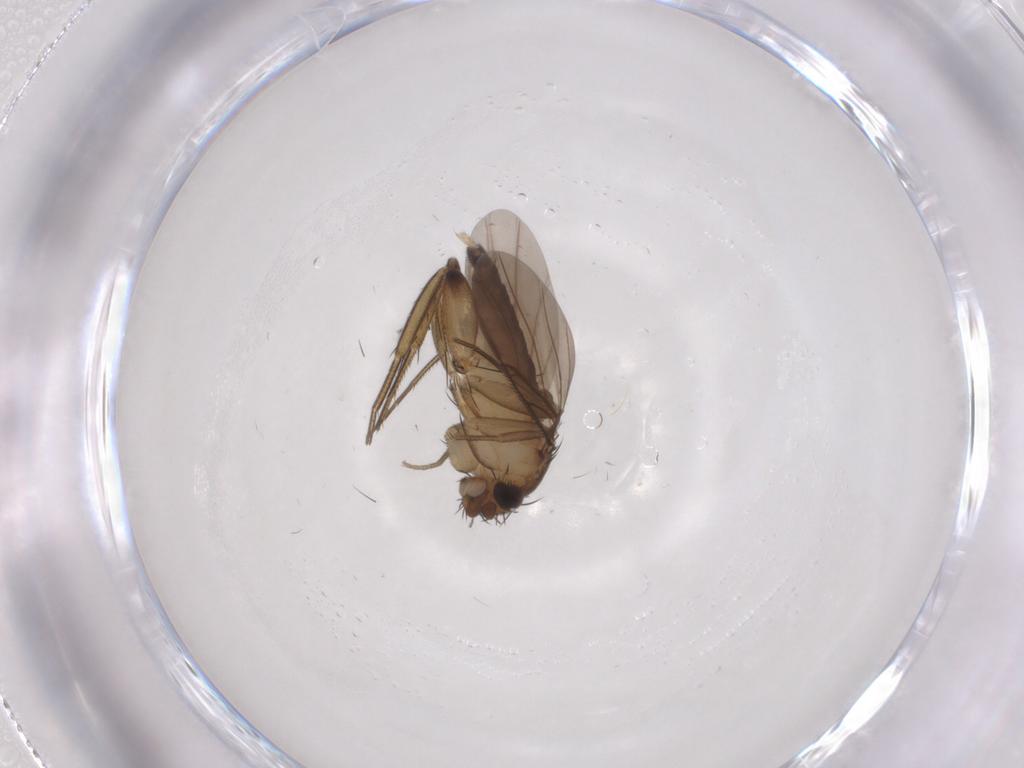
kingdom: Animalia
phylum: Arthropoda
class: Insecta
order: Diptera
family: Phoridae
